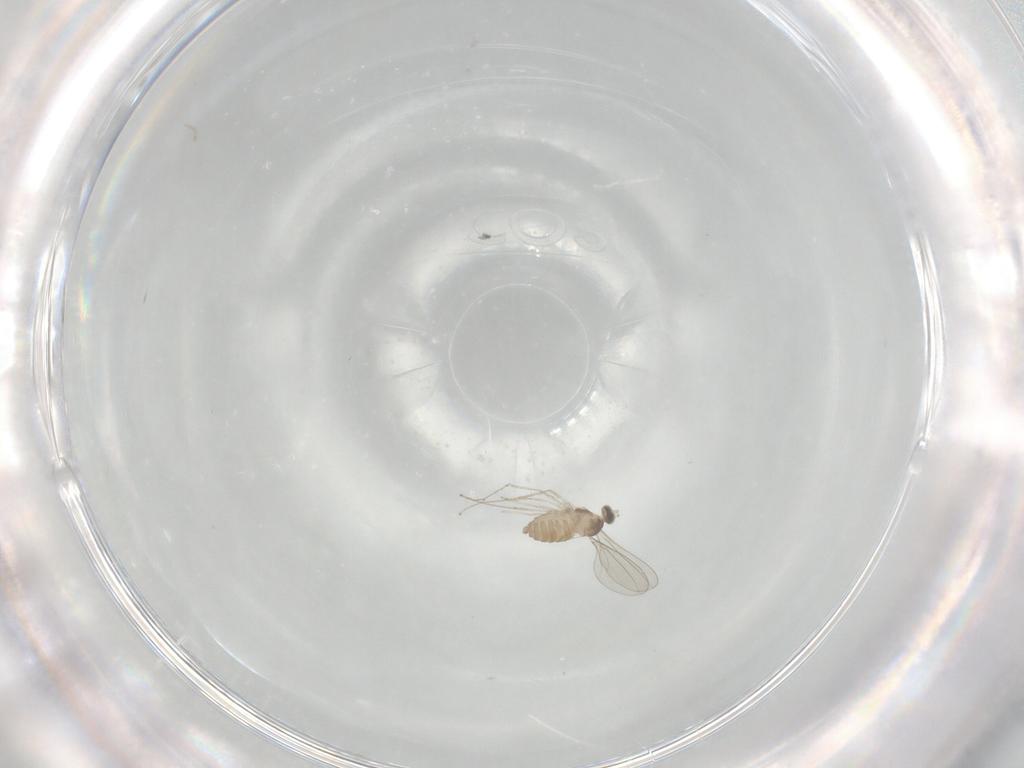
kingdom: Animalia
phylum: Arthropoda
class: Insecta
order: Diptera
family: Cecidomyiidae
